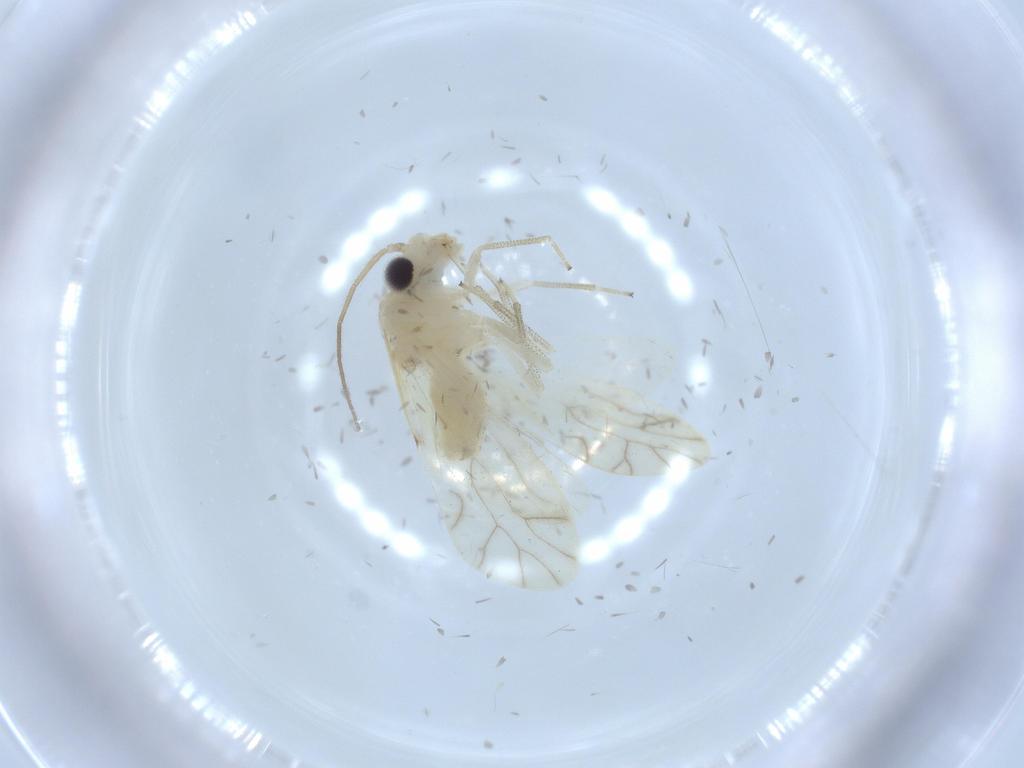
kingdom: Animalia
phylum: Arthropoda
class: Insecta
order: Psocodea
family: Caeciliusidae
